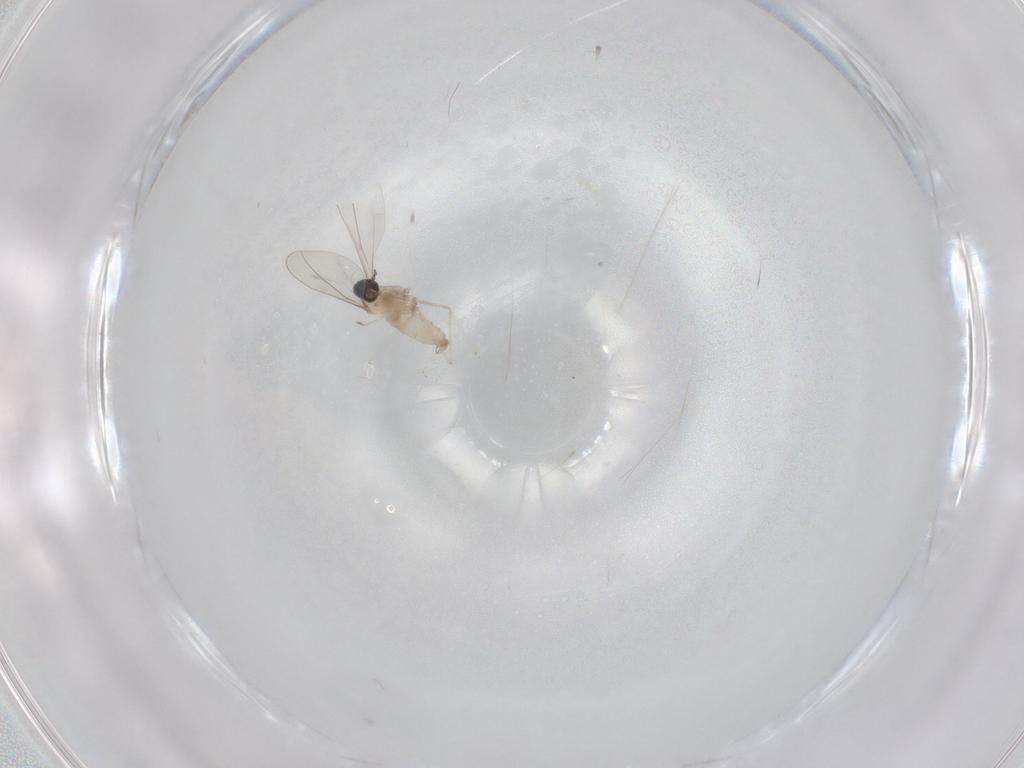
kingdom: Animalia
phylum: Arthropoda
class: Insecta
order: Diptera
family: Cecidomyiidae
